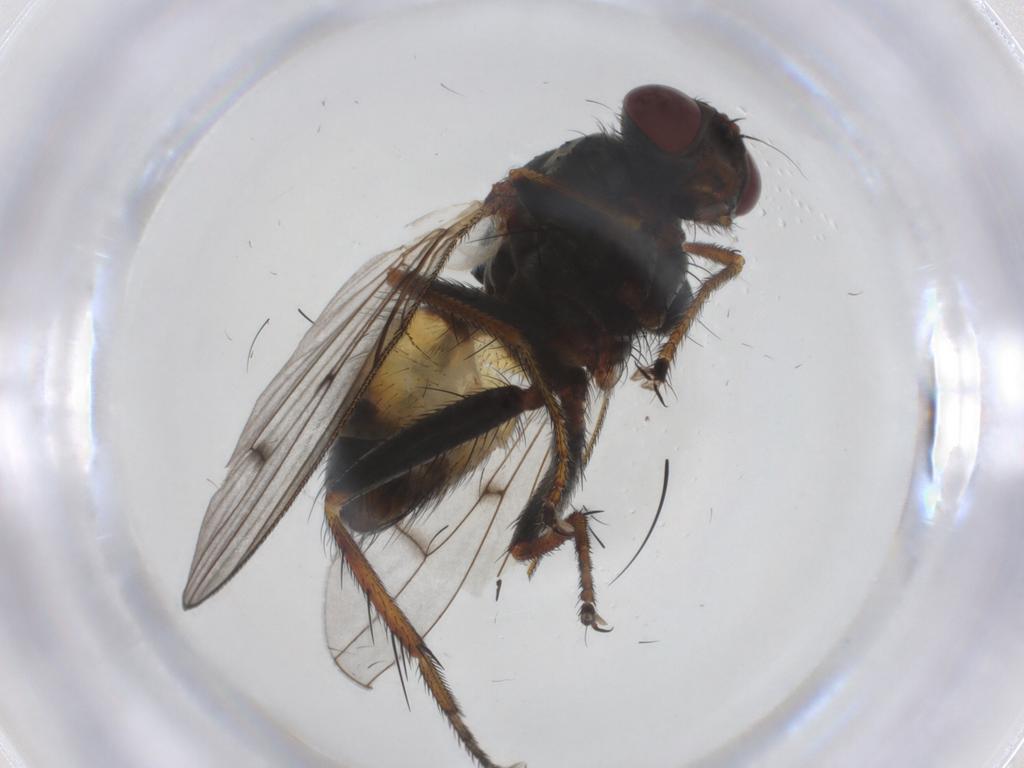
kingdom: Animalia
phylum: Arthropoda
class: Insecta
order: Diptera
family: Muscidae
